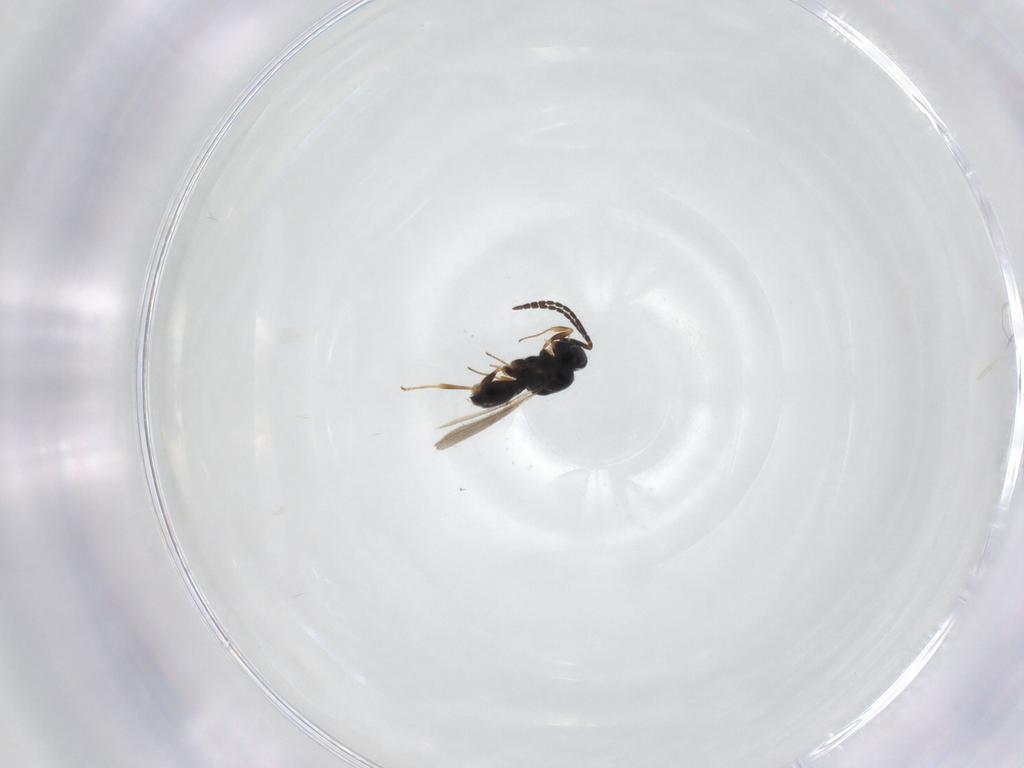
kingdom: Animalia
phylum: Arthropoda
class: Insecta
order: Hymenoptera
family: Scelionidae
